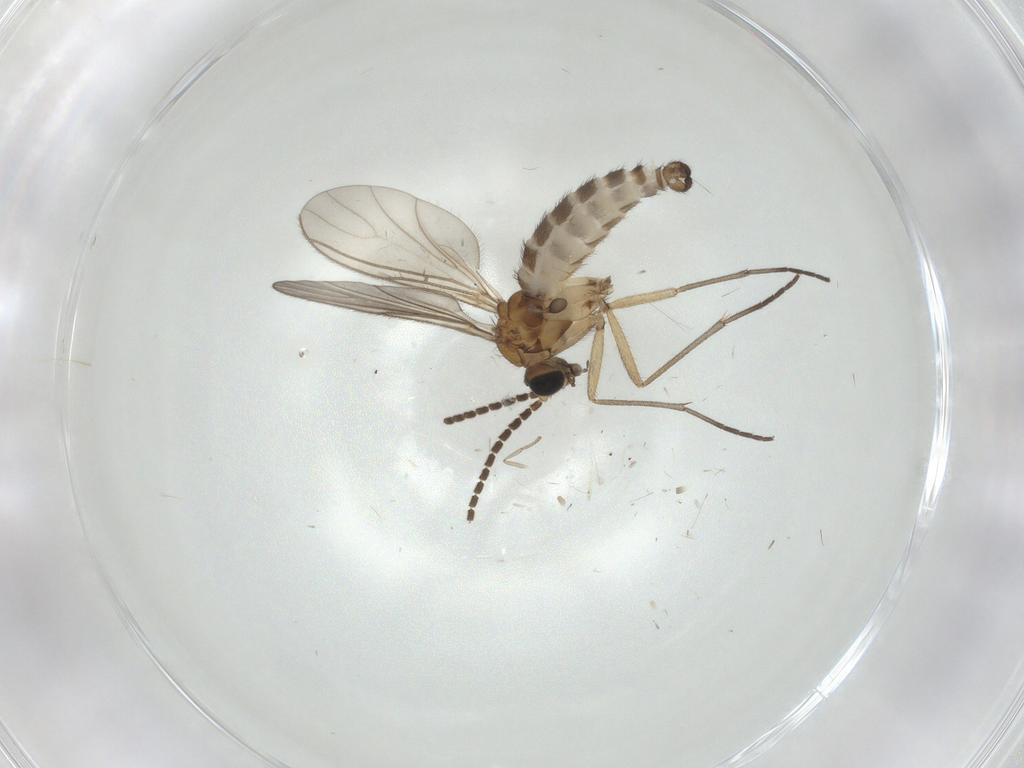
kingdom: Animalia
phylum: Arthropoda
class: Insecta
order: Diptera
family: Sciaridae
